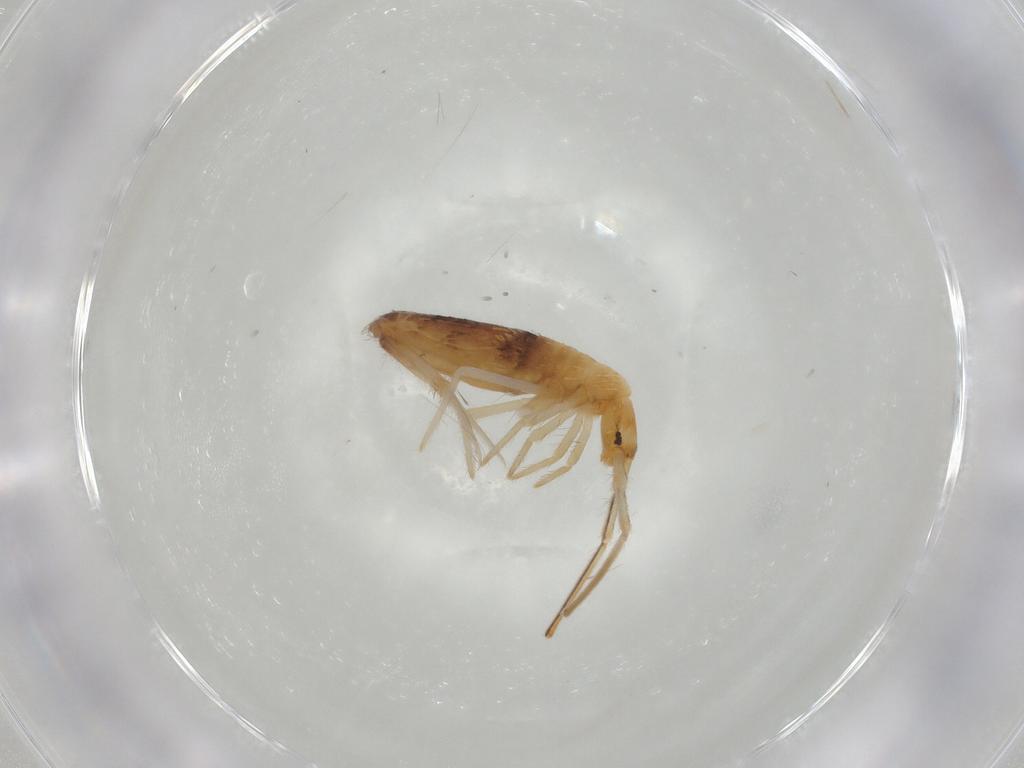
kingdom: Animalia
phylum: Arthropoda
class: Collembola
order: Entomobryomorpha
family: Entomobryidae
